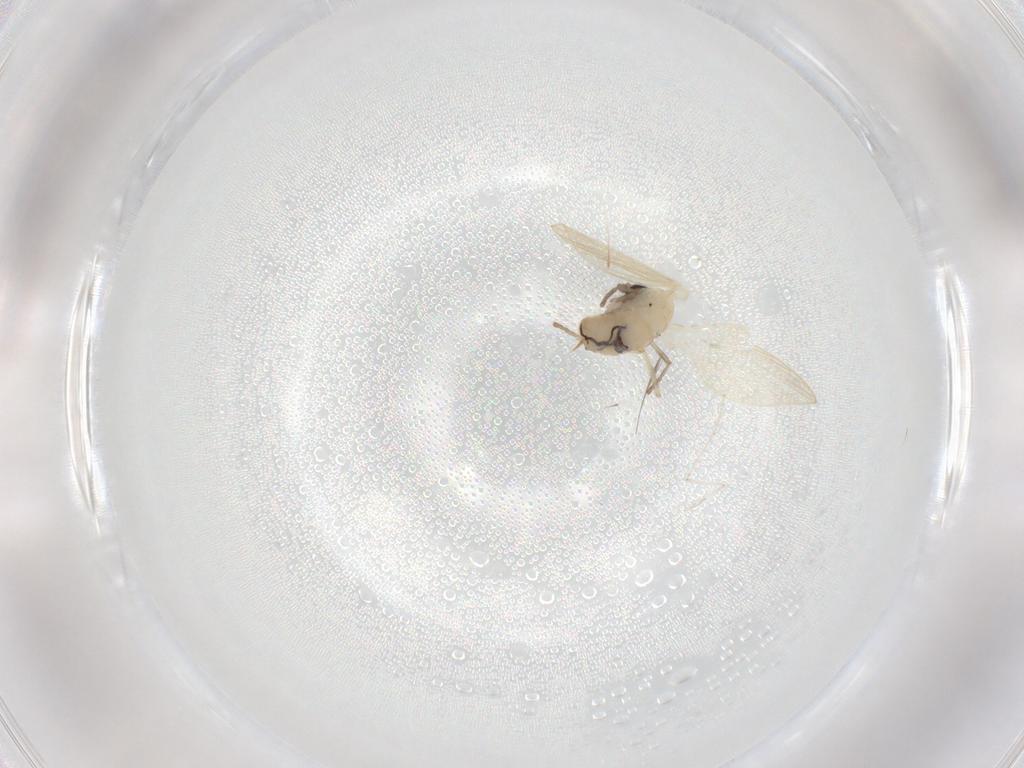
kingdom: Animalia
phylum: Arthropoda
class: Insecta
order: Diptera
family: Psychodidae
